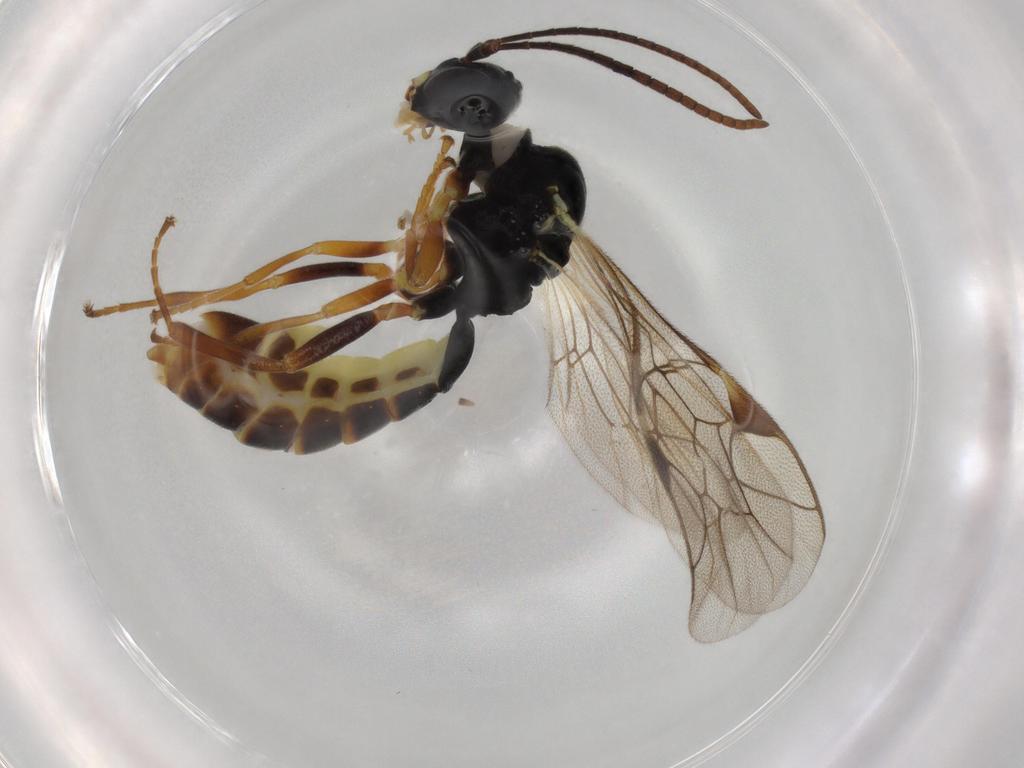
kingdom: Animalia
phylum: Arthropoda
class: Insecta
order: Hymenoptera
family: Ichneumonidae
